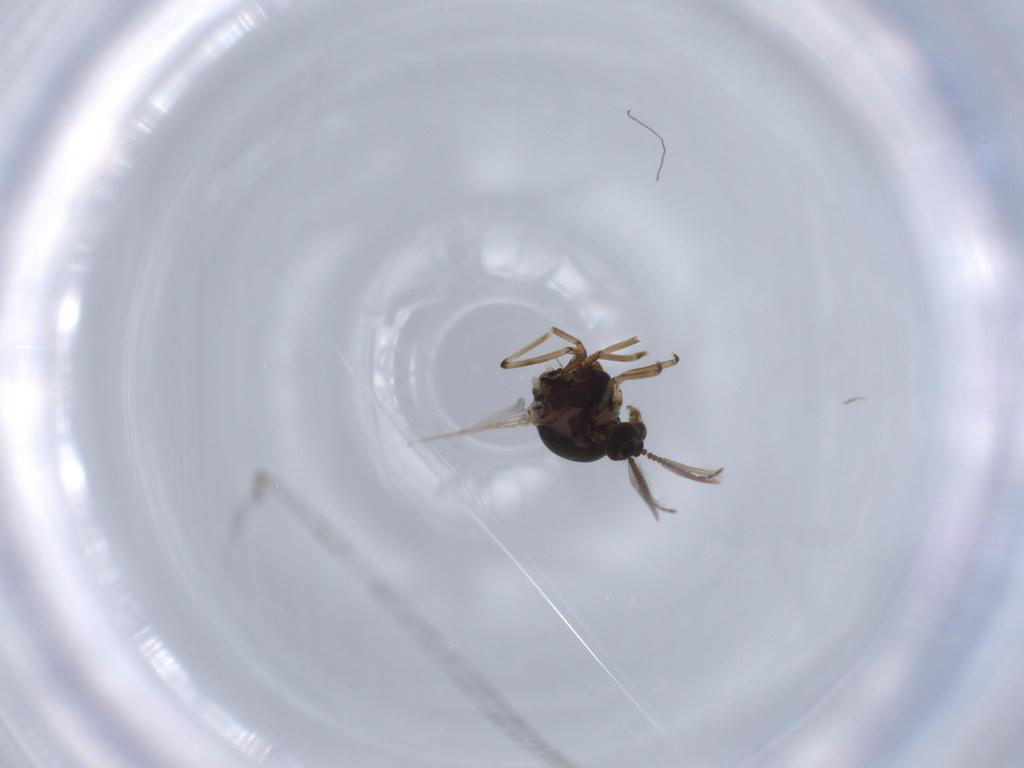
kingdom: Animalia
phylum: Arthropoda
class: Insecta
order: Diptera
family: Ceratopogonidae
